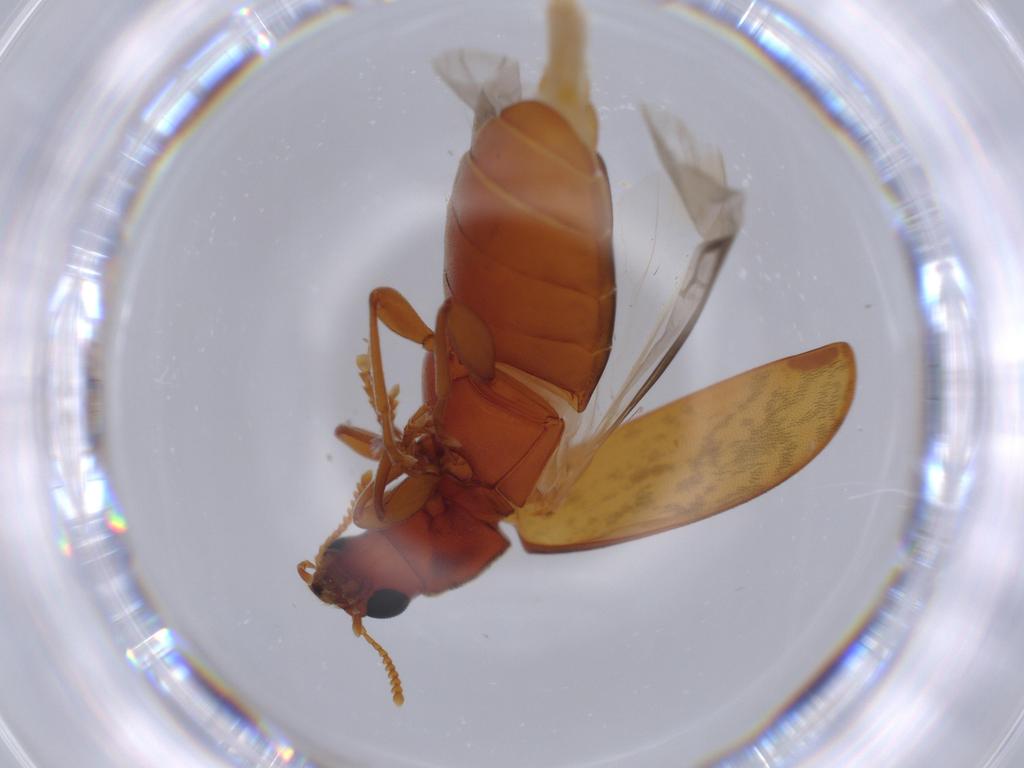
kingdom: Animalia
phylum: Arthropoda
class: Insecta
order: Coleoptera
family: Mycteridae
